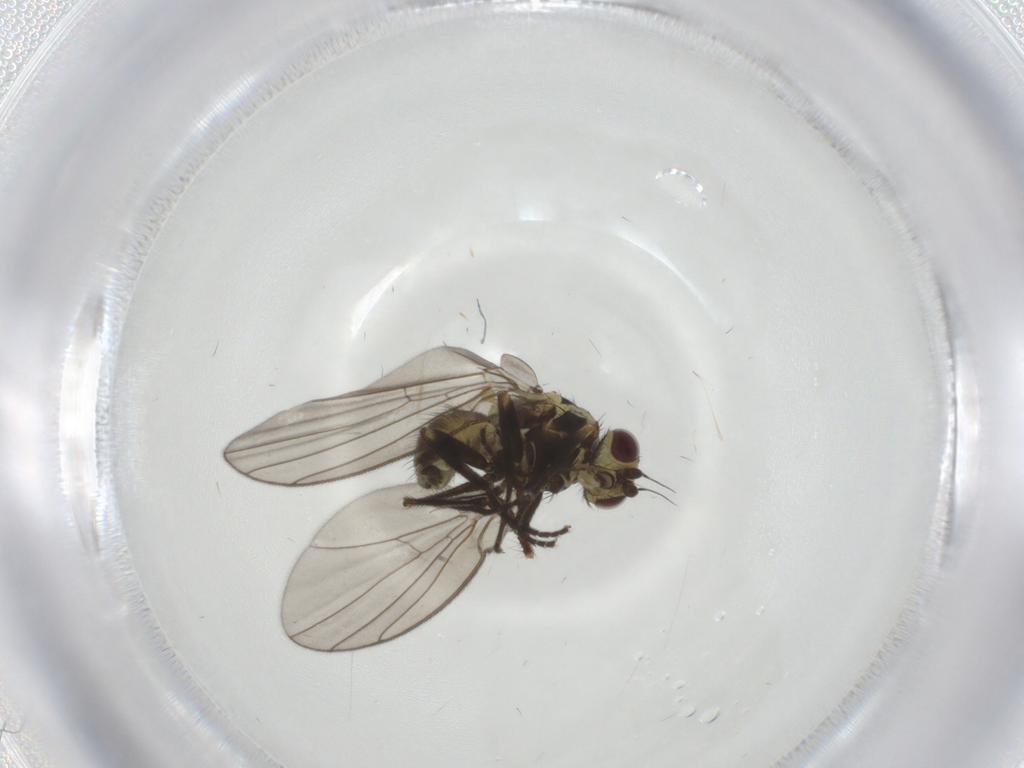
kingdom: Animalia
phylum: Arthropoda
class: Insecta
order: Diptera
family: Agromyzidae
